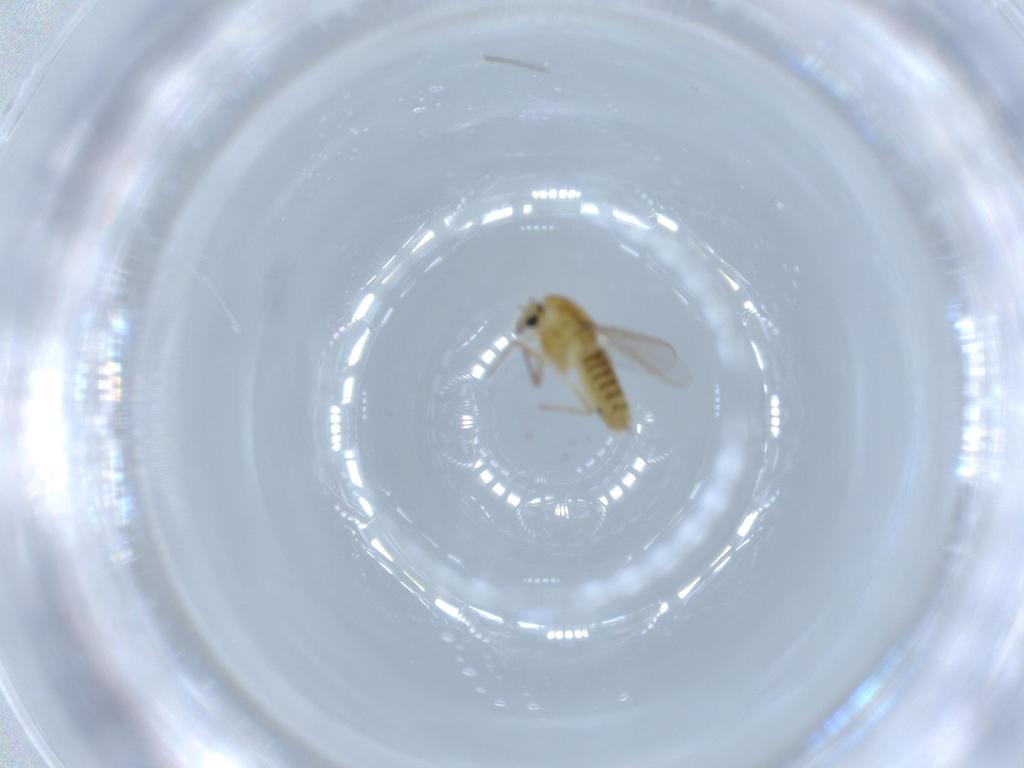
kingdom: Animalia
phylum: Arthropoda
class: Insecta
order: Diptera
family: Chironomidae
